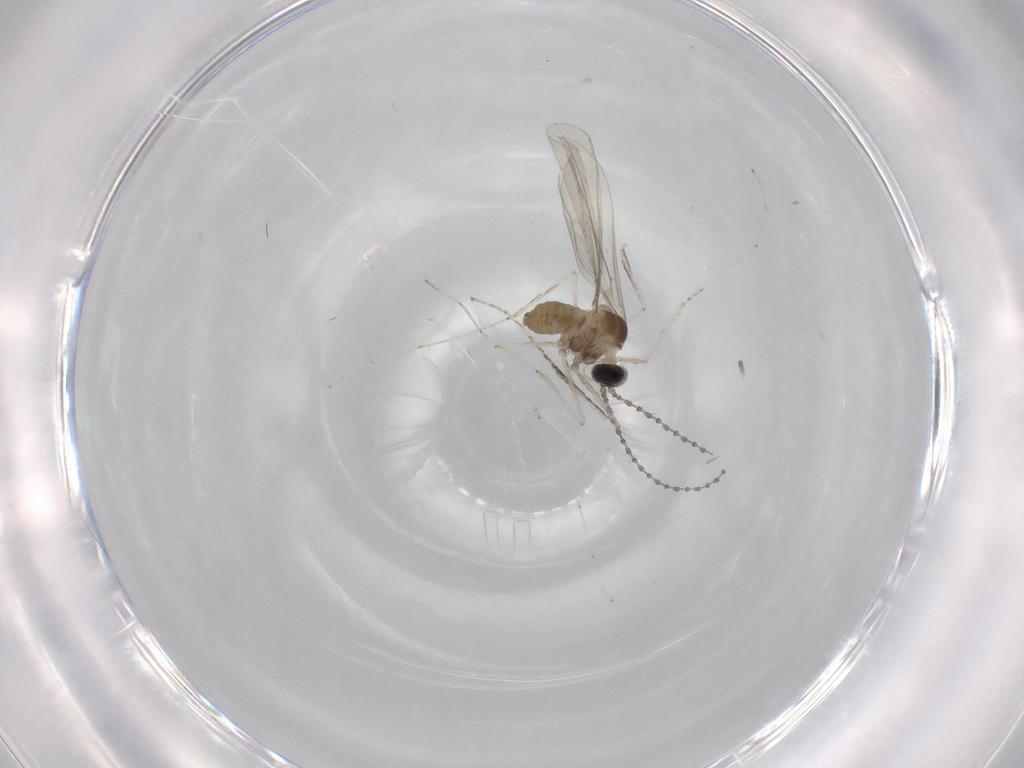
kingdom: Animalia
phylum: Arthropoda
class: Insecta
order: Diptera
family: Cecidomyiidae
